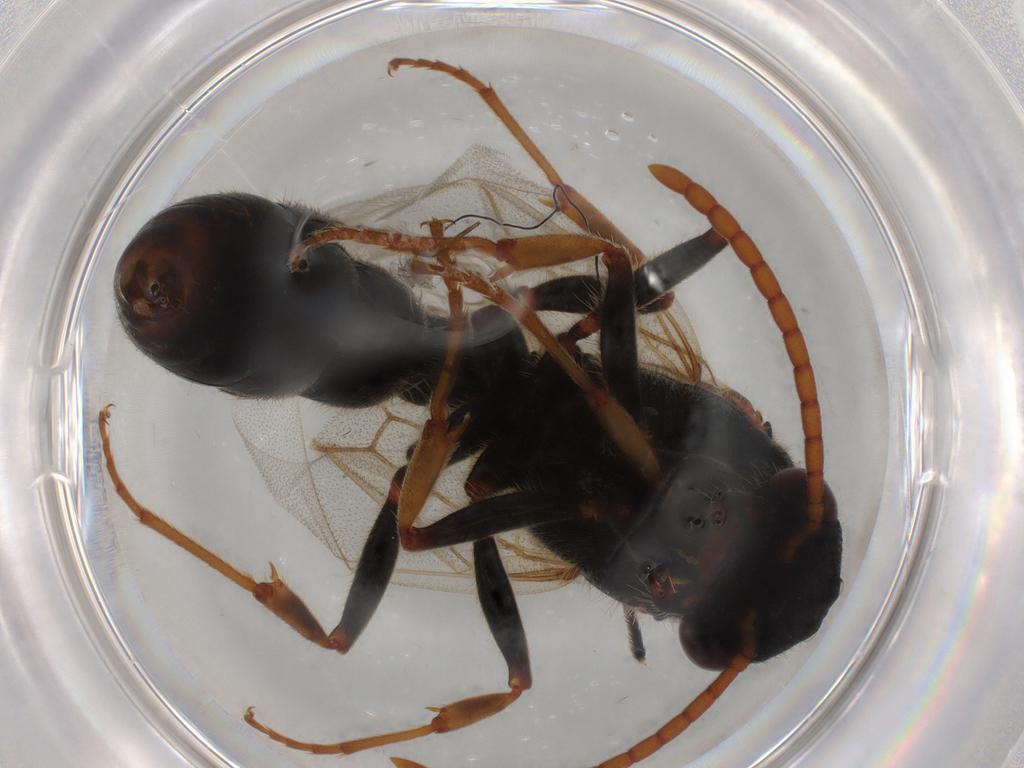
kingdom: Animalia
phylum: Arthropoda
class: Insecta
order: Hymenoptera
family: Formicidae
